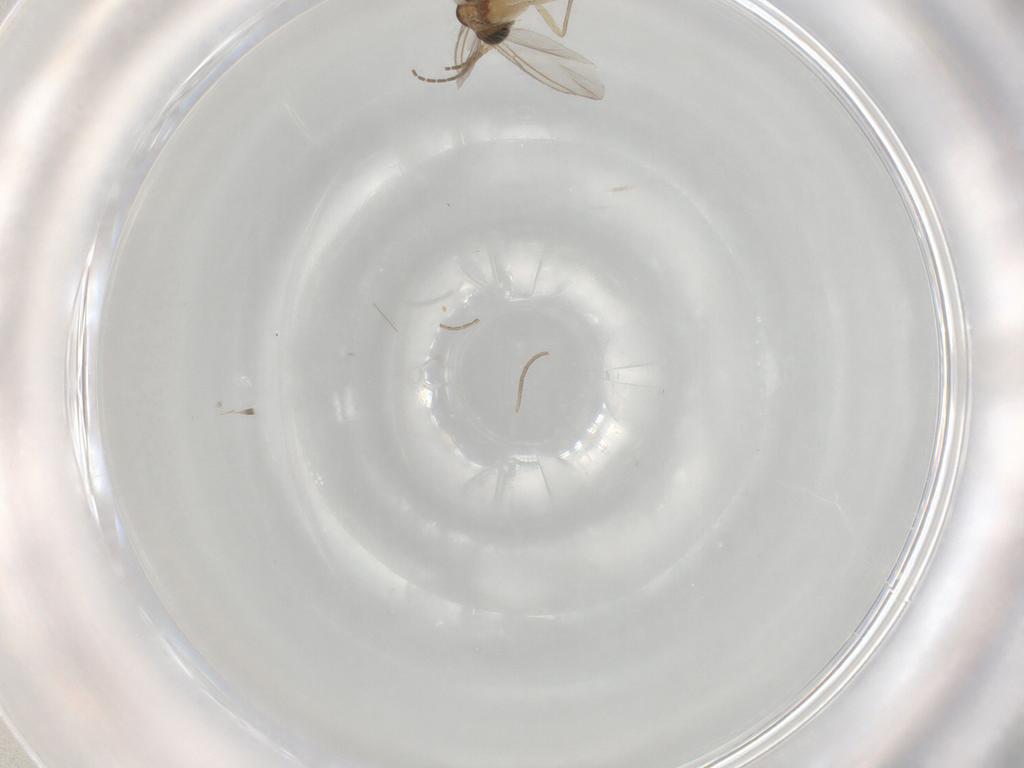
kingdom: Animalia
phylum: Arthropoda
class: Insecta
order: Diptera
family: Sciaridae
